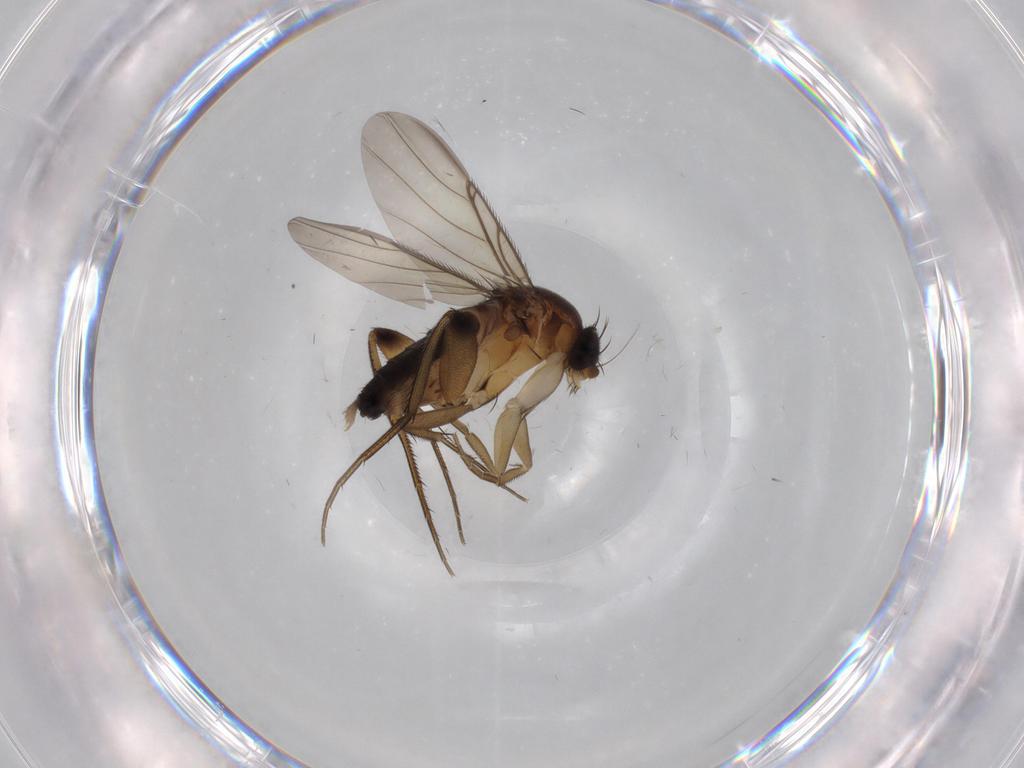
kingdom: Animalia
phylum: Arthropoda
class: Insecta
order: Diptera
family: Phoridae
